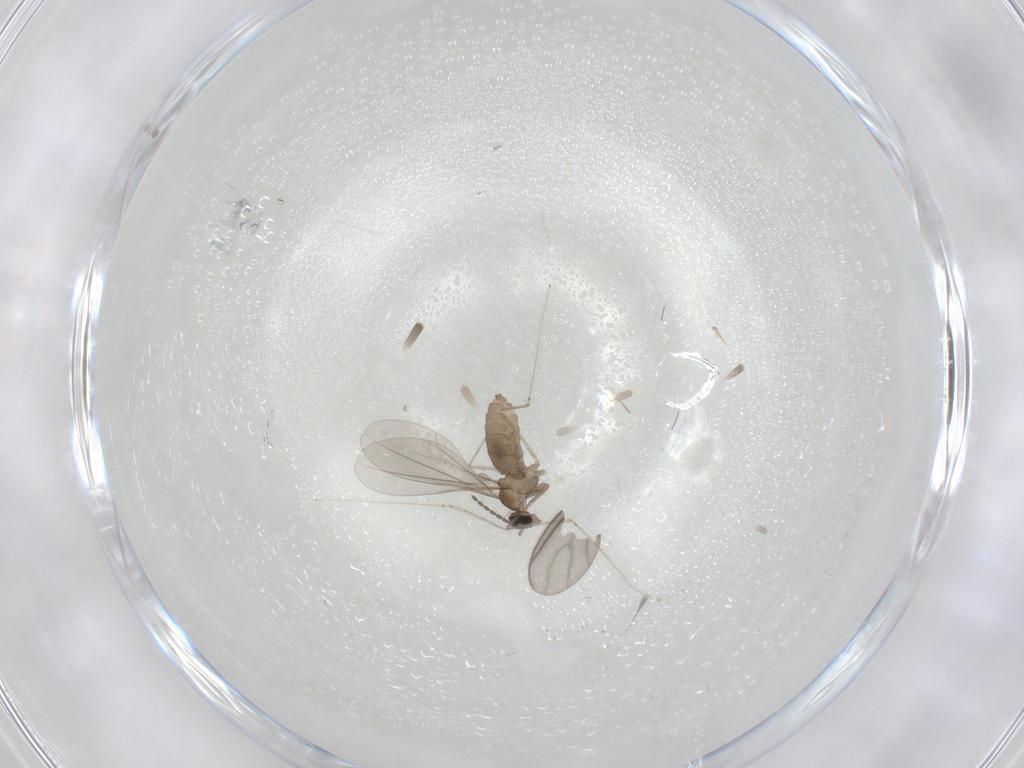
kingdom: Animalia
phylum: Arthropoda
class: Insecta
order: Diptera
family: Cecidomyiidae
